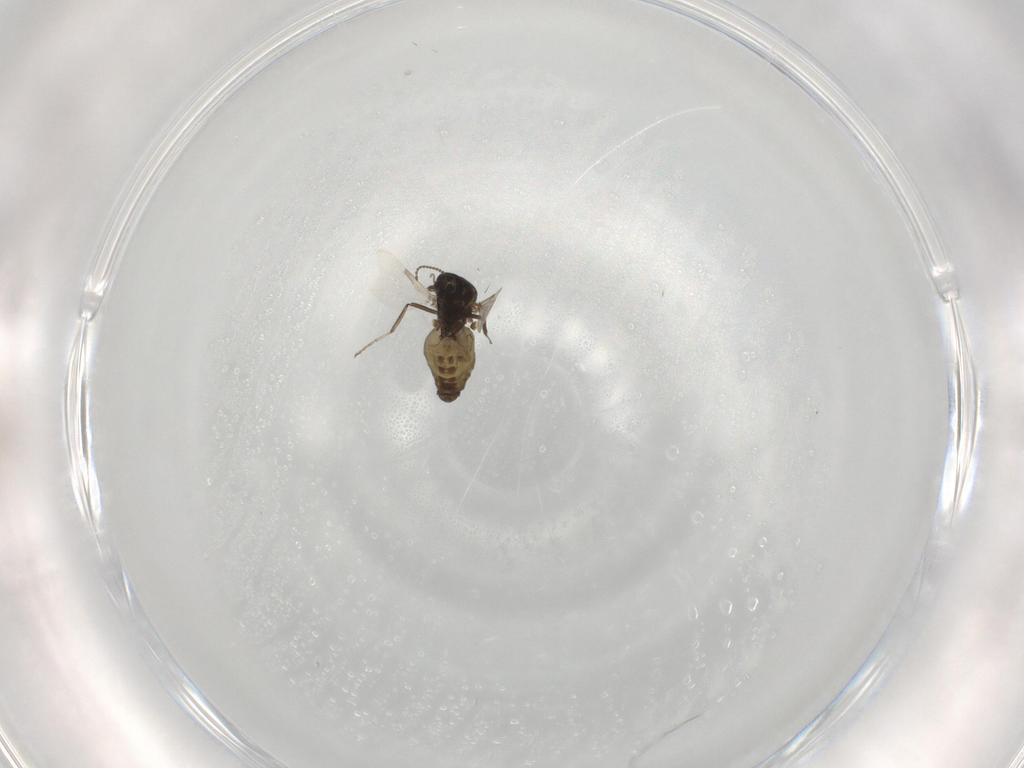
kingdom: Animalia
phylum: Arthropoda
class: Insecta
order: Diptera
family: Ceratopogonidae
